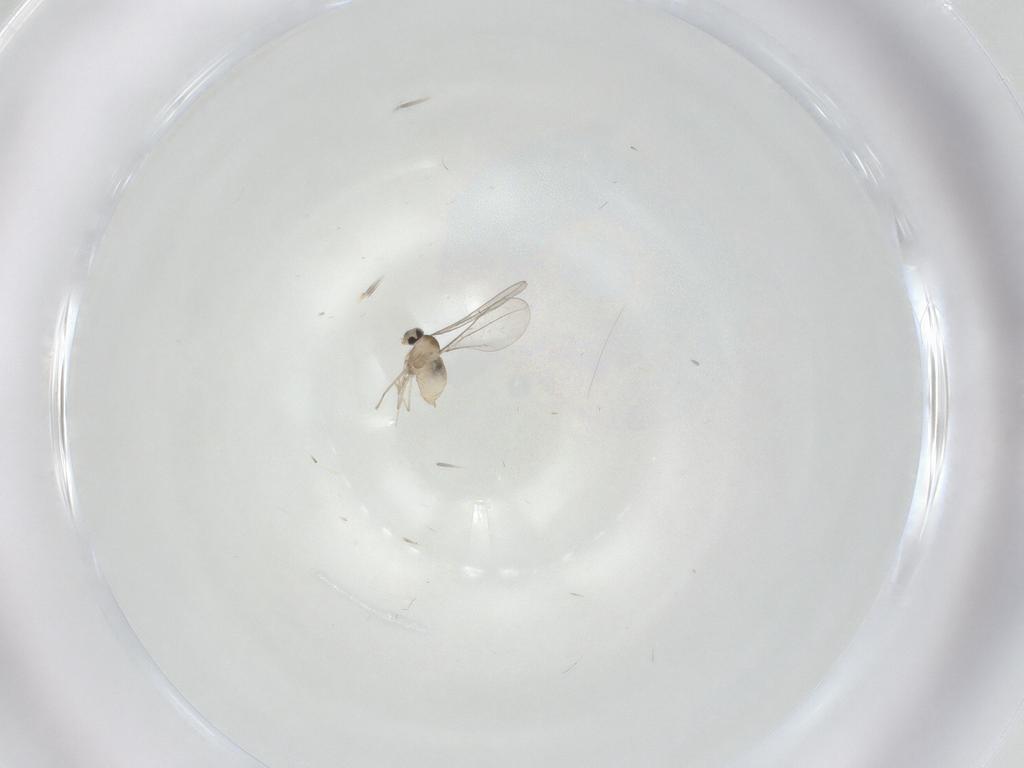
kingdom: Animalia
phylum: Arthropoda
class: Insecta
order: Diptera
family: Cecidomyiidae
